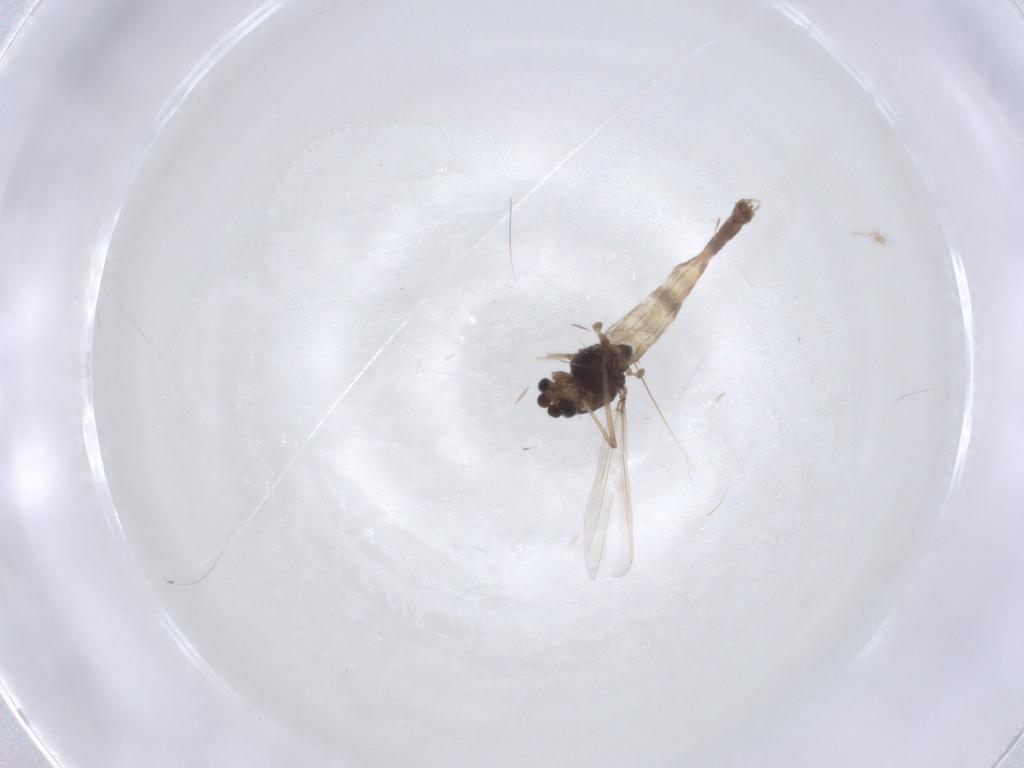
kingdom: Animalia
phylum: Arthropoda
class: Insecta
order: Diptera
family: Chironomidae
